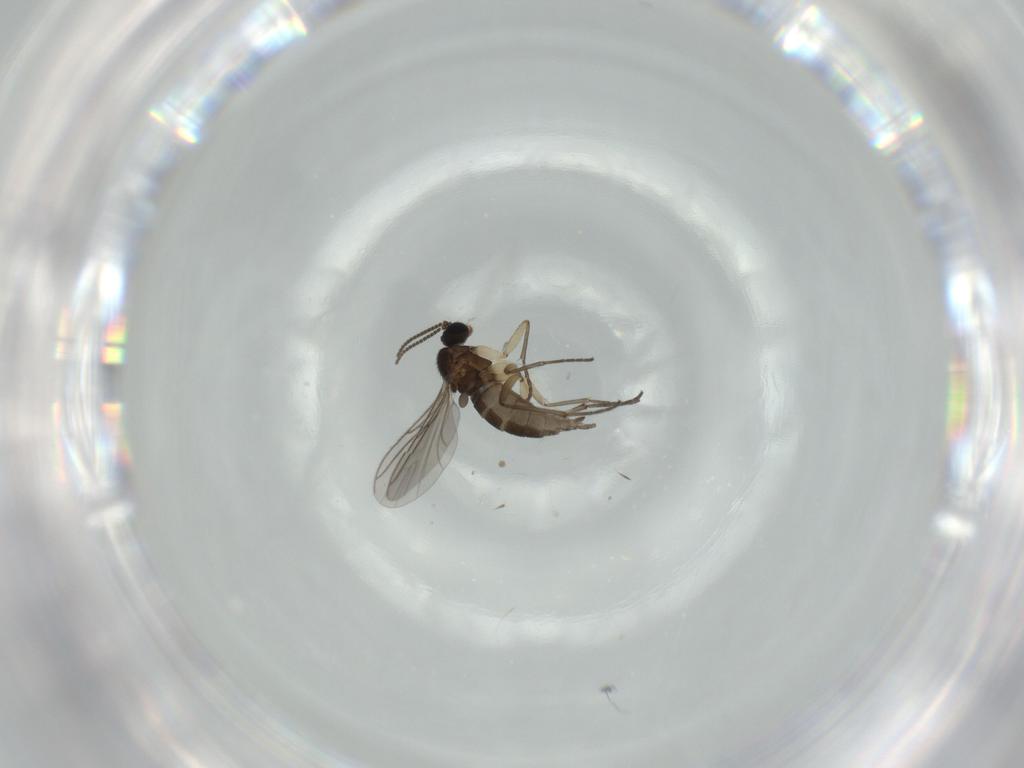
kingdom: Animalia
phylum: Arthropoda
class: Insecta
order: Diptera
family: Sciaridae
